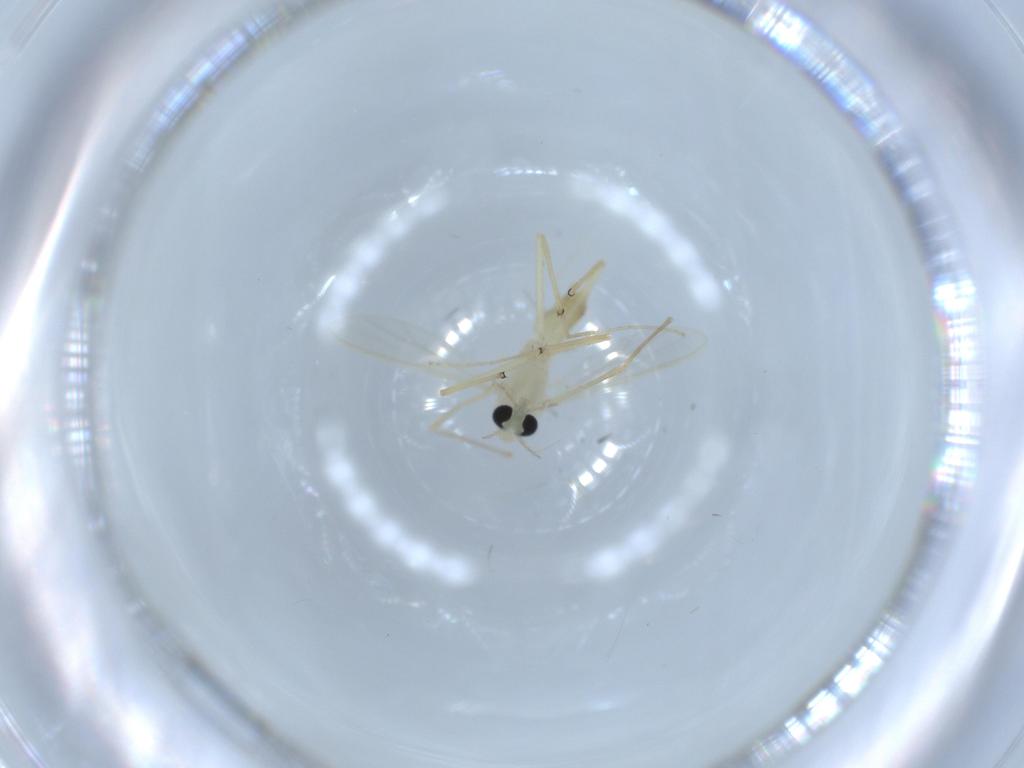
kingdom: Animalia
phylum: Arthropoda
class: Insecta
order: Diptera
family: Chironomidae
